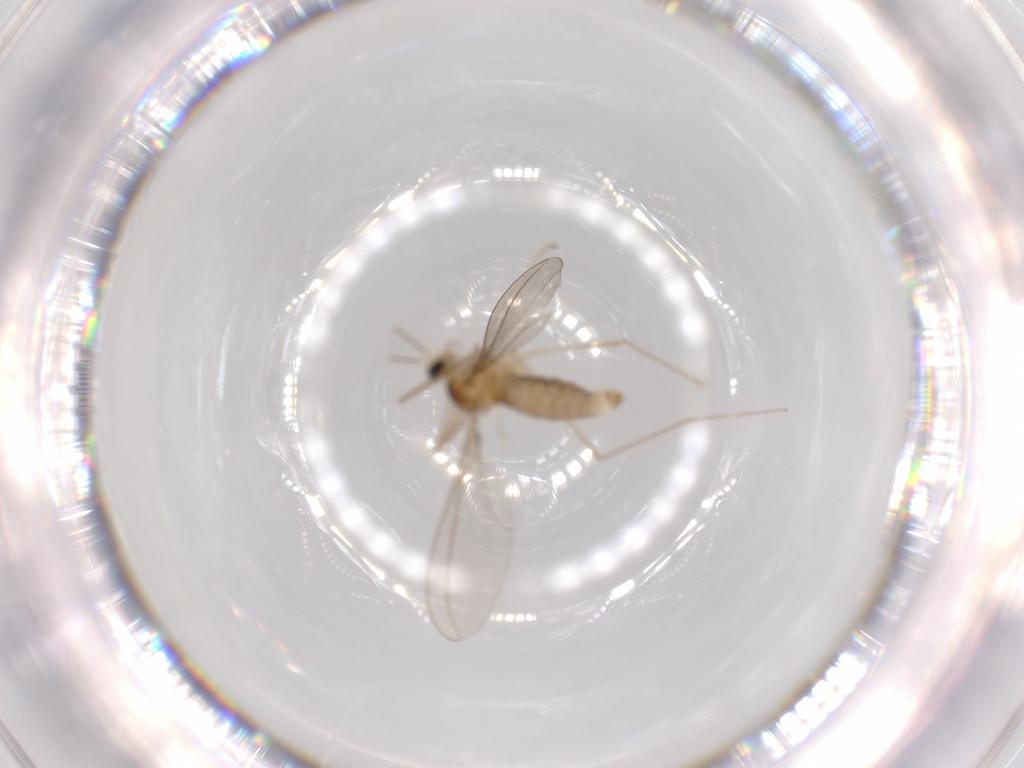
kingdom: Animalia
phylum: Arthropoda
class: Insecta
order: Diptera
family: Cecidomyiidae
